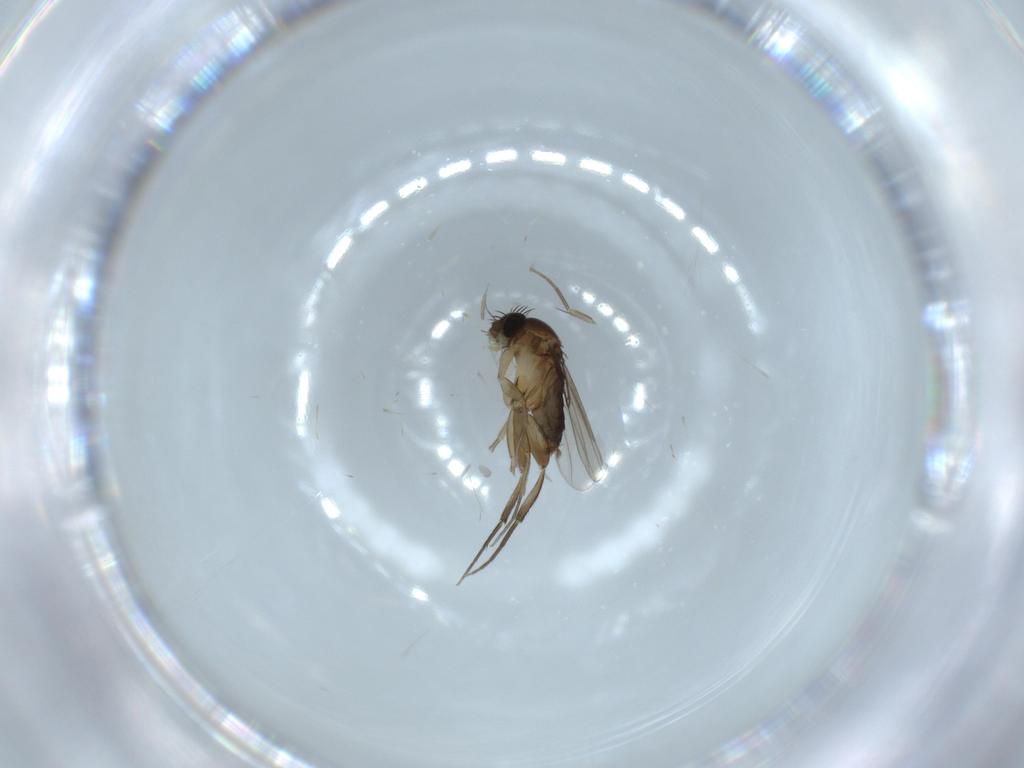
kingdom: Animalia
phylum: Arthropoda
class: Insecta
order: Diptera
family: Phoridae
